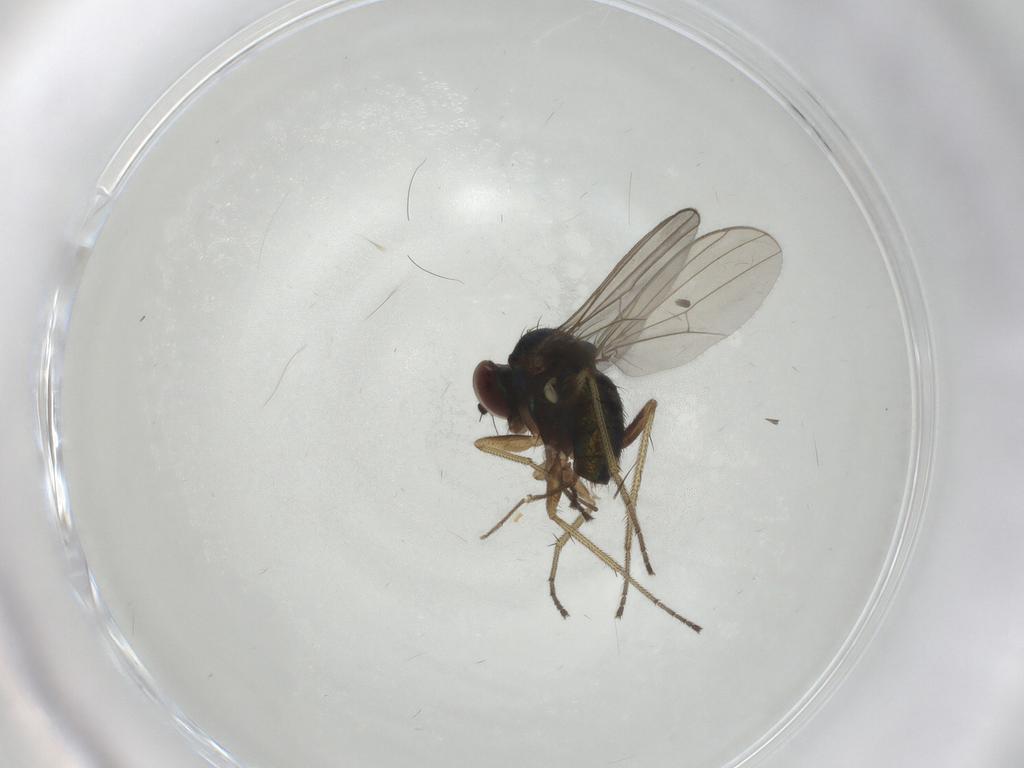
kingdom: Animalia
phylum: Arthropoda
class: Insecta
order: Diptera
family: Dolichopodidae
